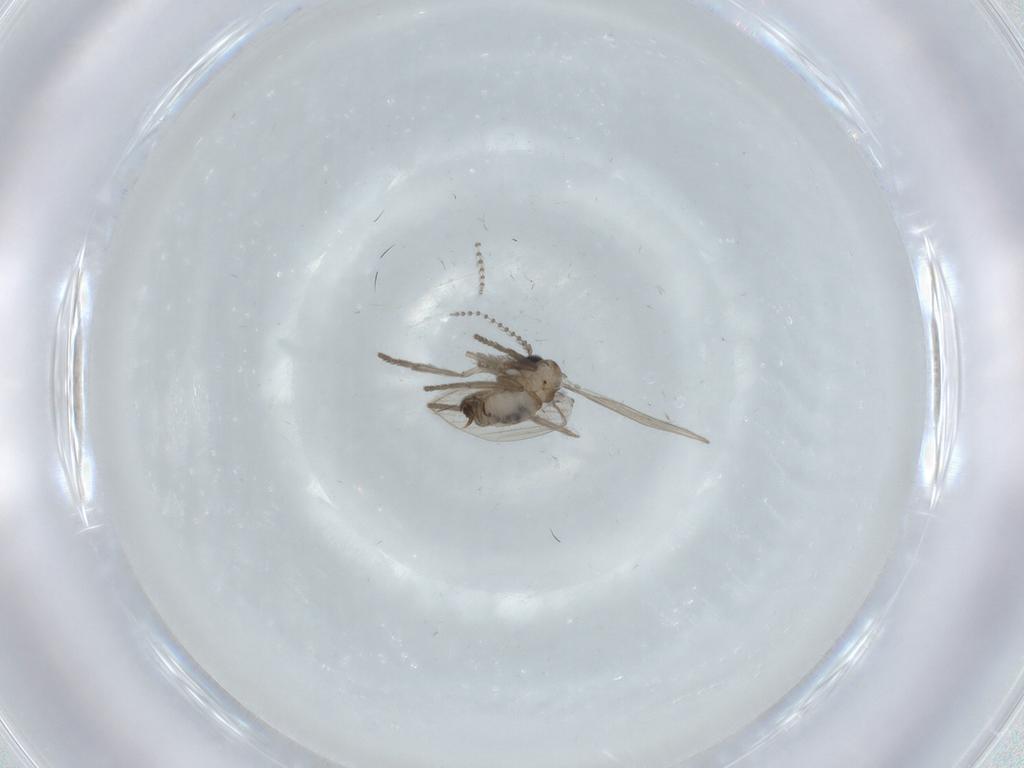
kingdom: Animalia
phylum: Arthropoda
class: Insecta
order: Diptera
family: Psychodidae
